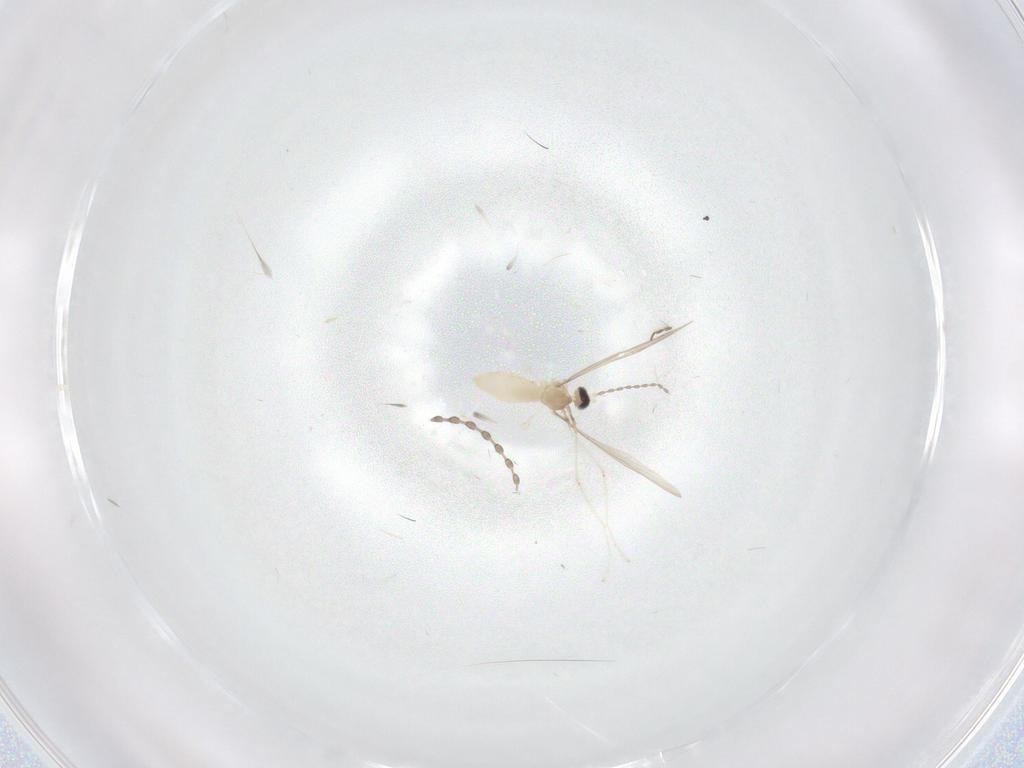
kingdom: Animalia
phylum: Arthropoda
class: Insecta
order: Diptera
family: Cecidomyiidae
